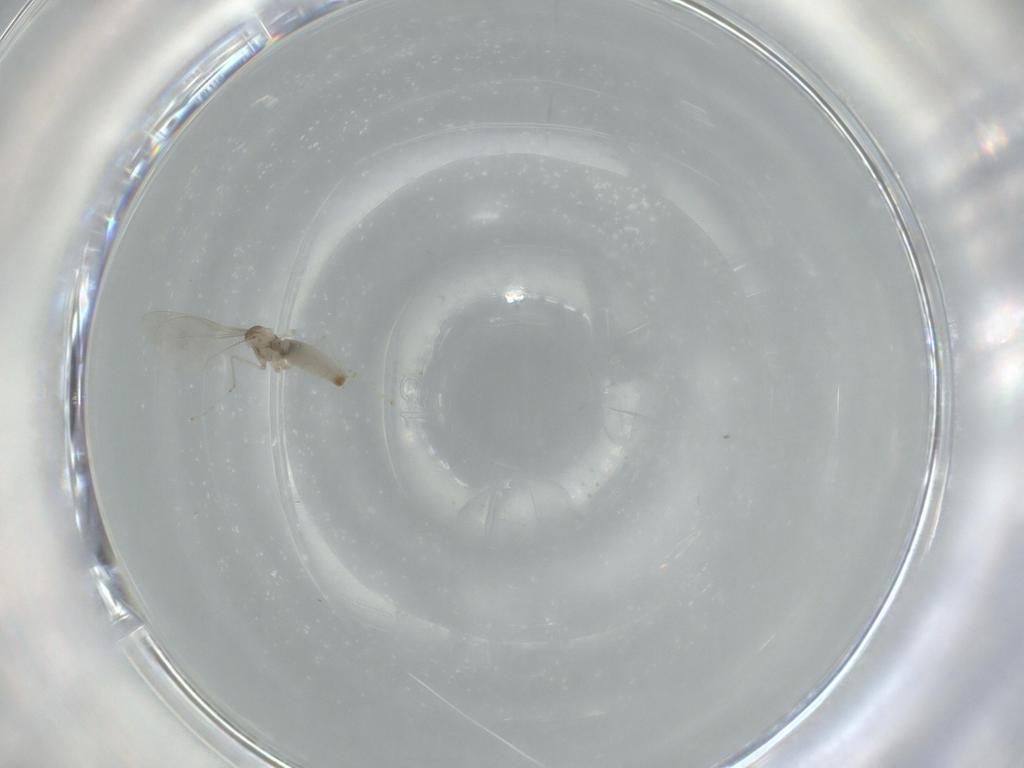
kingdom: Animalia
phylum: Arthropoda
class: Insecta
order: Diptera
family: Cecidomyiidae
